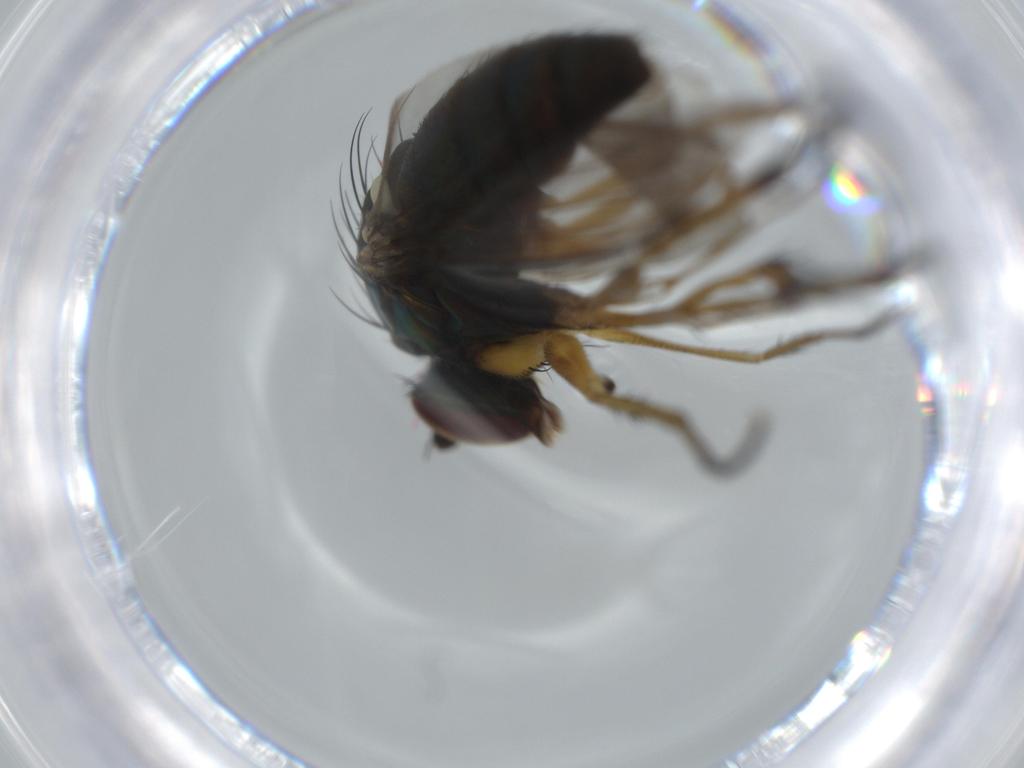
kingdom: Animalia
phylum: Arthropoda
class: Insecta
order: Diptera
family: Dolichopodidae
